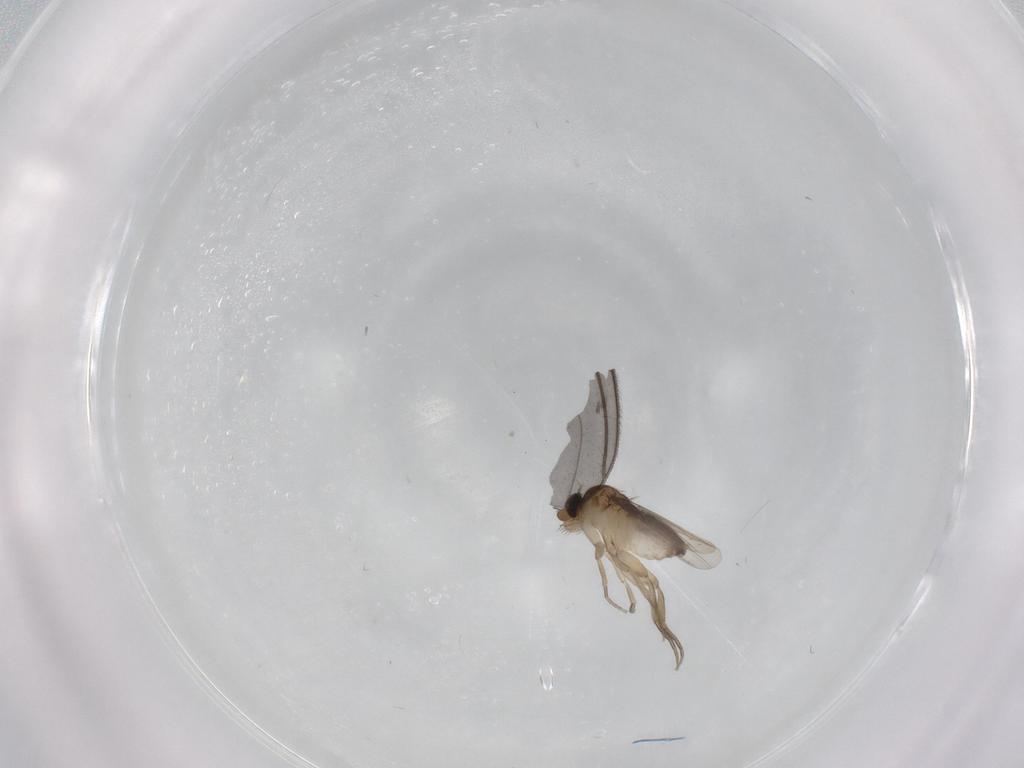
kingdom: Animalia
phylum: Arthropoda
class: Insecta
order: Diptera
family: Sciaridae
